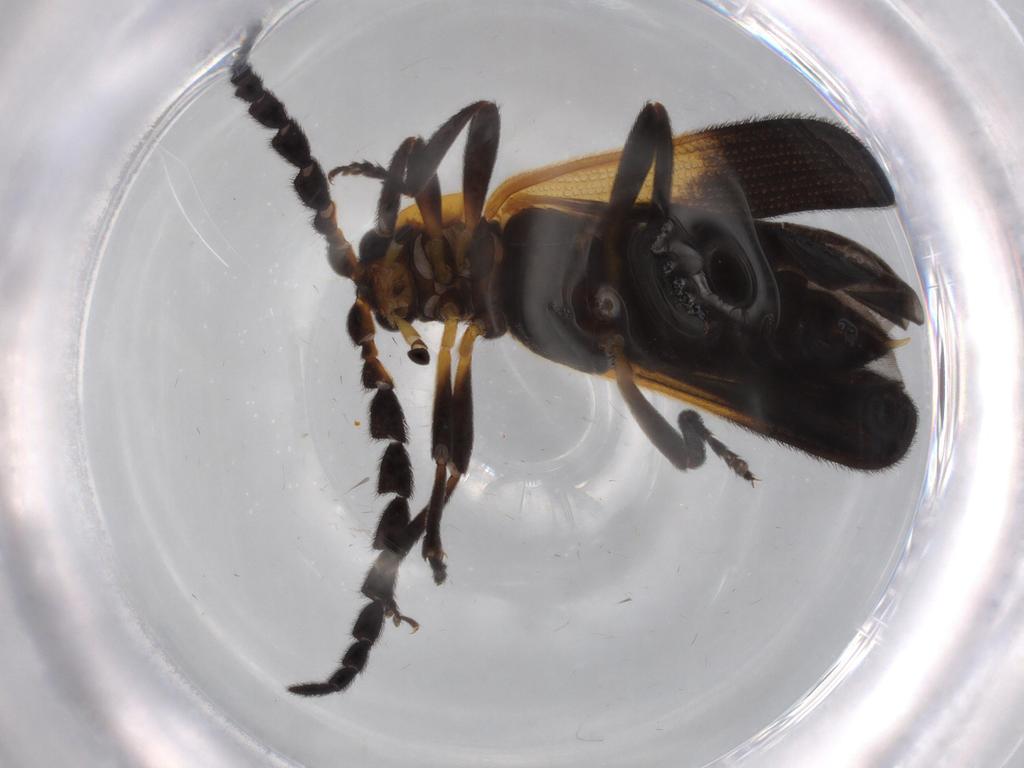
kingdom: Animalia
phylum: Arthropoda
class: Insecta
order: Coleoptera
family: Lycidae
